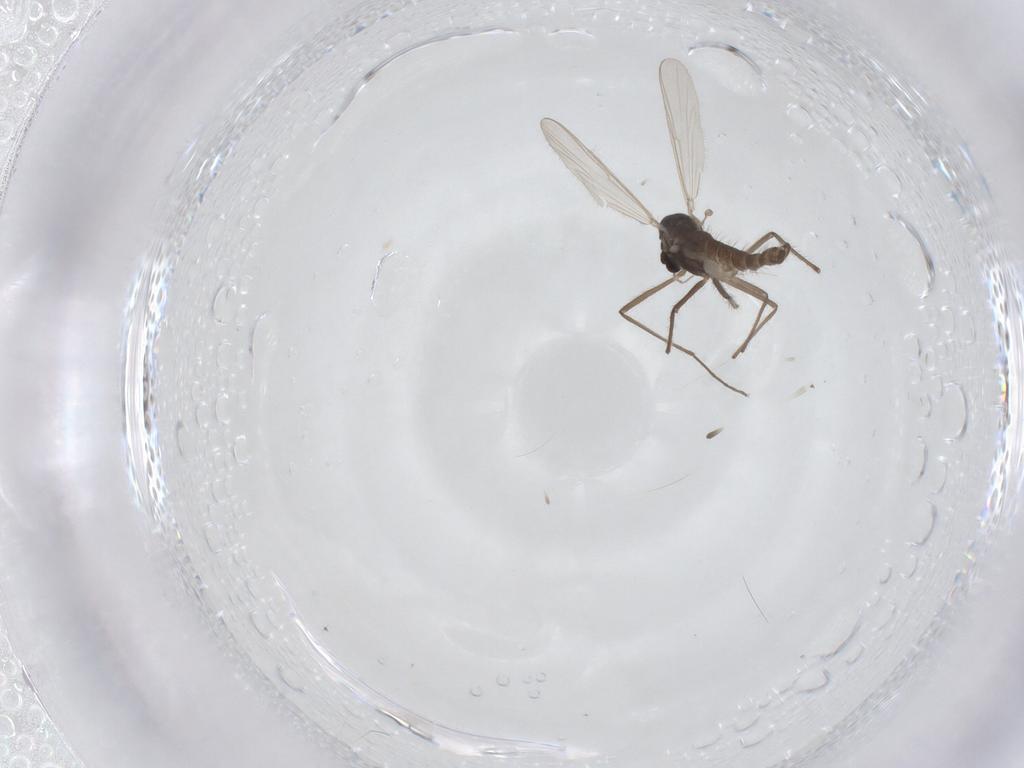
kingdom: Animalia
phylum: Arthropoda
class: Insecta
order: Diptera
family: Chironomidae
